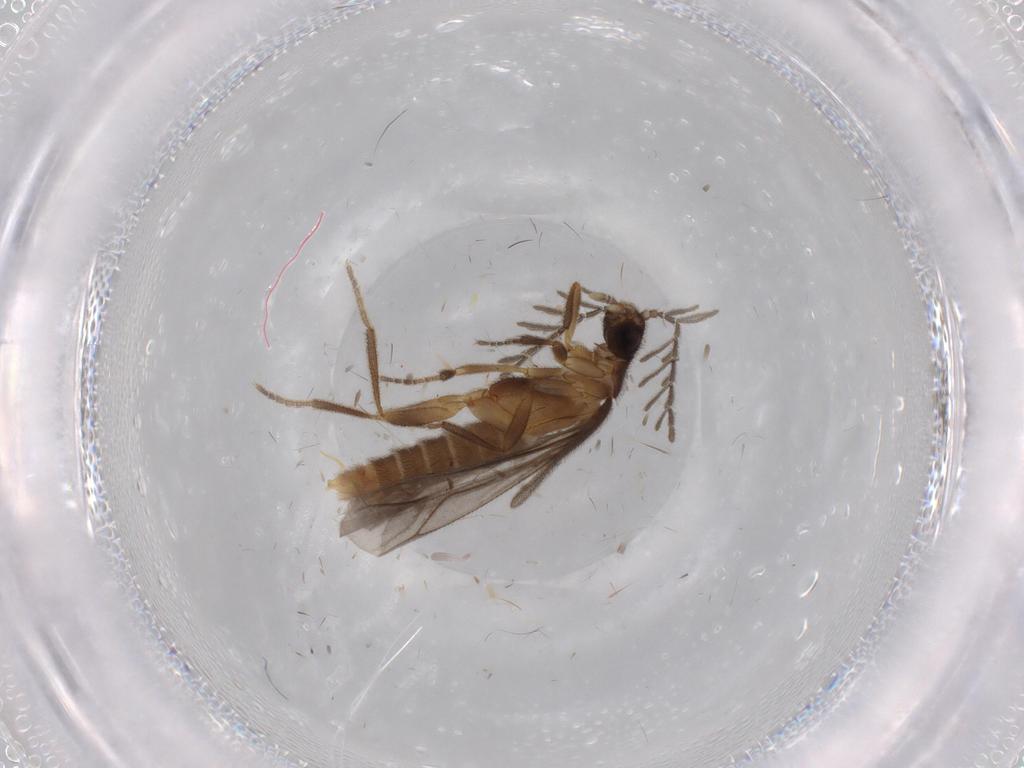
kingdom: Animalia
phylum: Arthropoda
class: Insecta
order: Coleoptera
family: Ptilodactylidae
